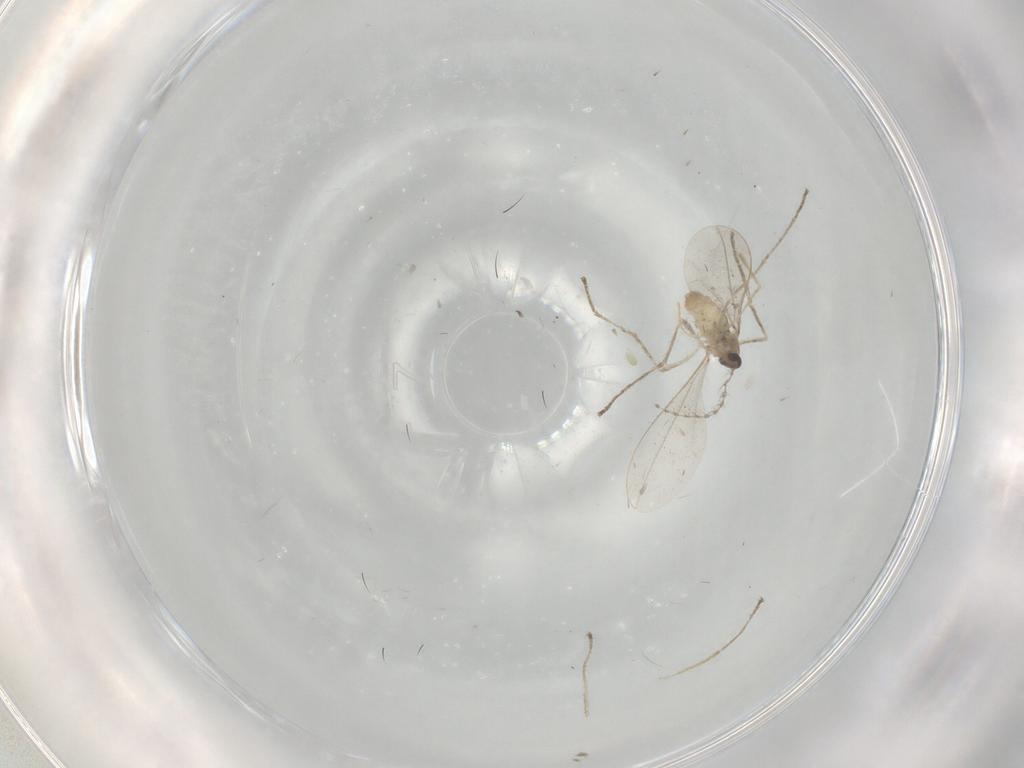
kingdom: Animalia
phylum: Arthropoda
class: Insecta
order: Diptera
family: Cecidomyiidae
